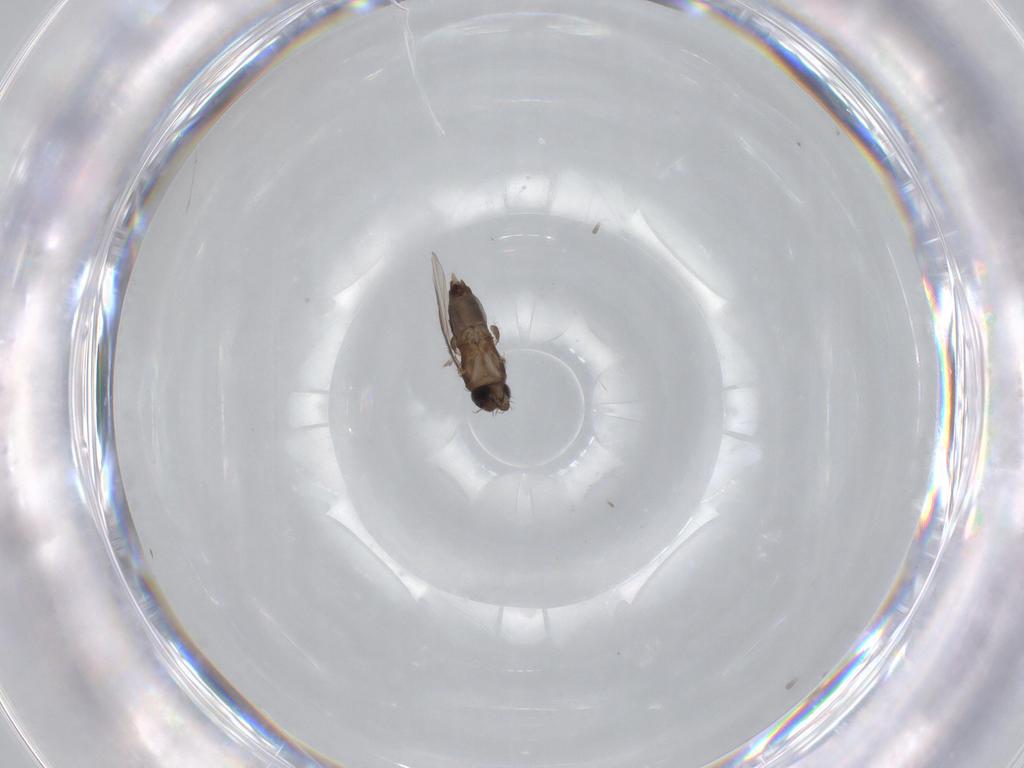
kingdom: Animalia
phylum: Arthropoda
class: Insecta
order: Diptera
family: Phoridae
